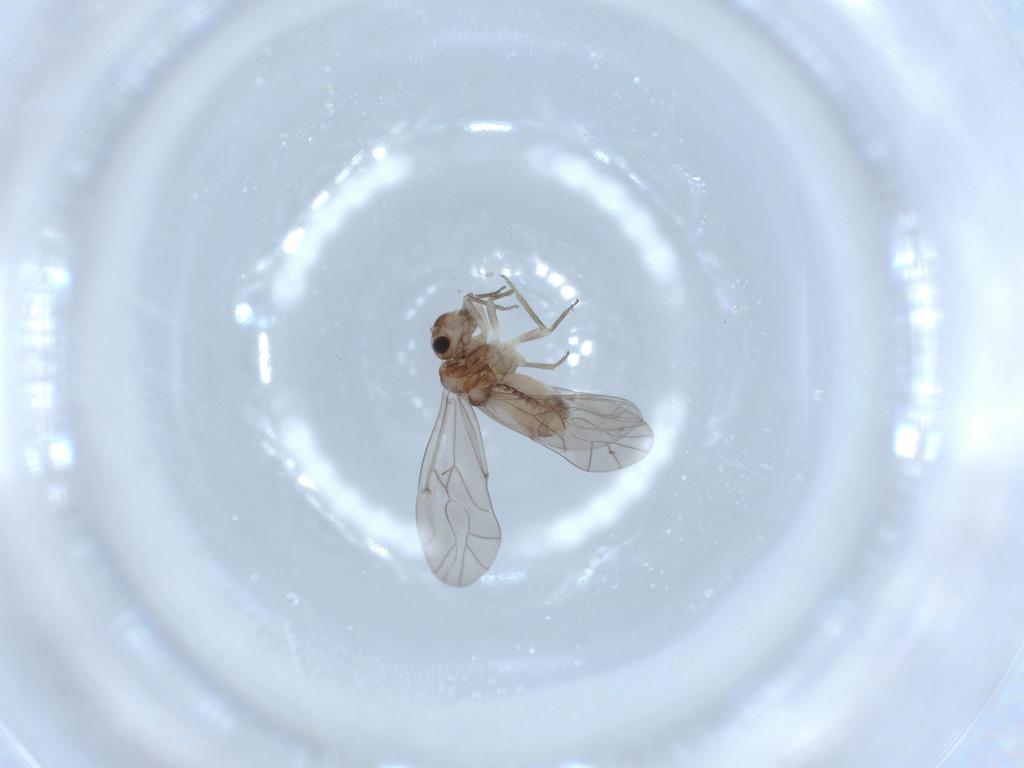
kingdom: Animalia
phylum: Arthropoda
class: Insecta
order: Psocodea
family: Lachesillidae
